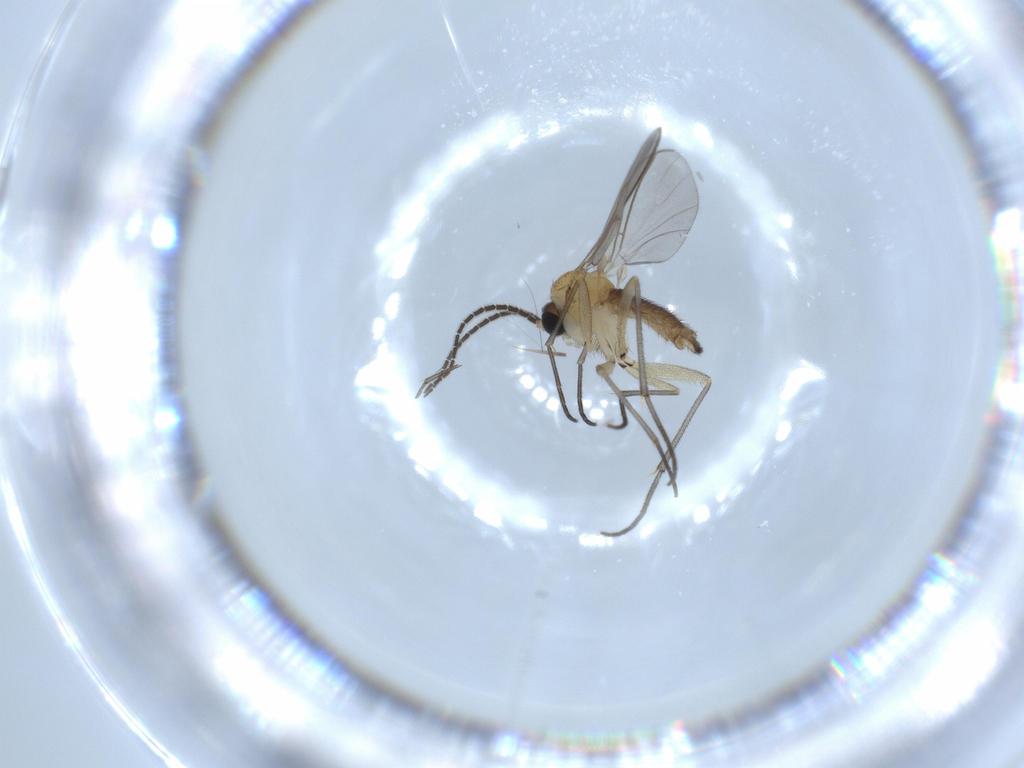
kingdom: Animalia
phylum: Arthropoda
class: Insecta
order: Diptera
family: Sciaridae
